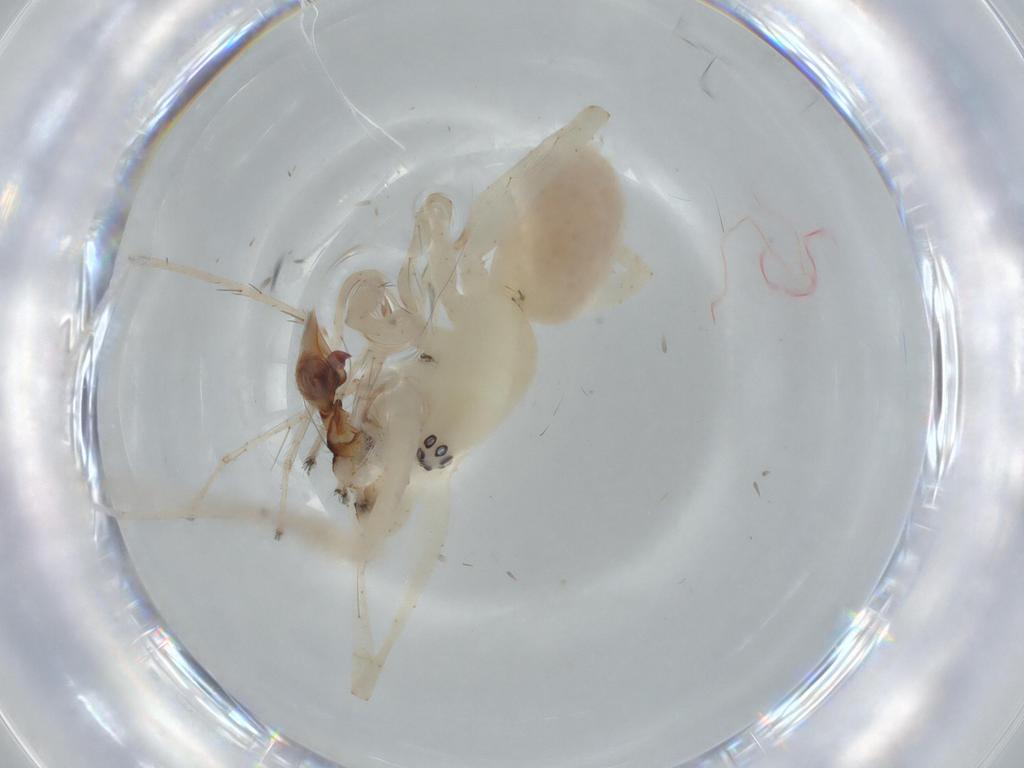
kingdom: Animalia
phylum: Arthropoda
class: Arachnida
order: Araneae
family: Anyphaenidae
